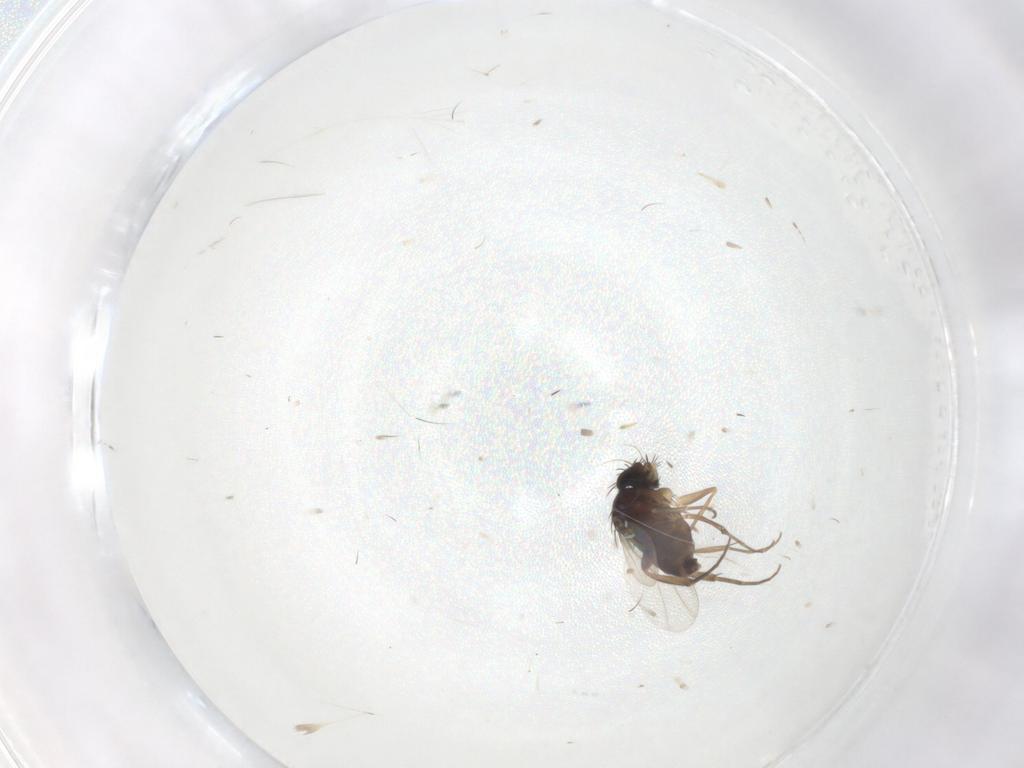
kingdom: Animalia
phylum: Arthropoda
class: Insecta
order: Diptera
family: Phoridae
